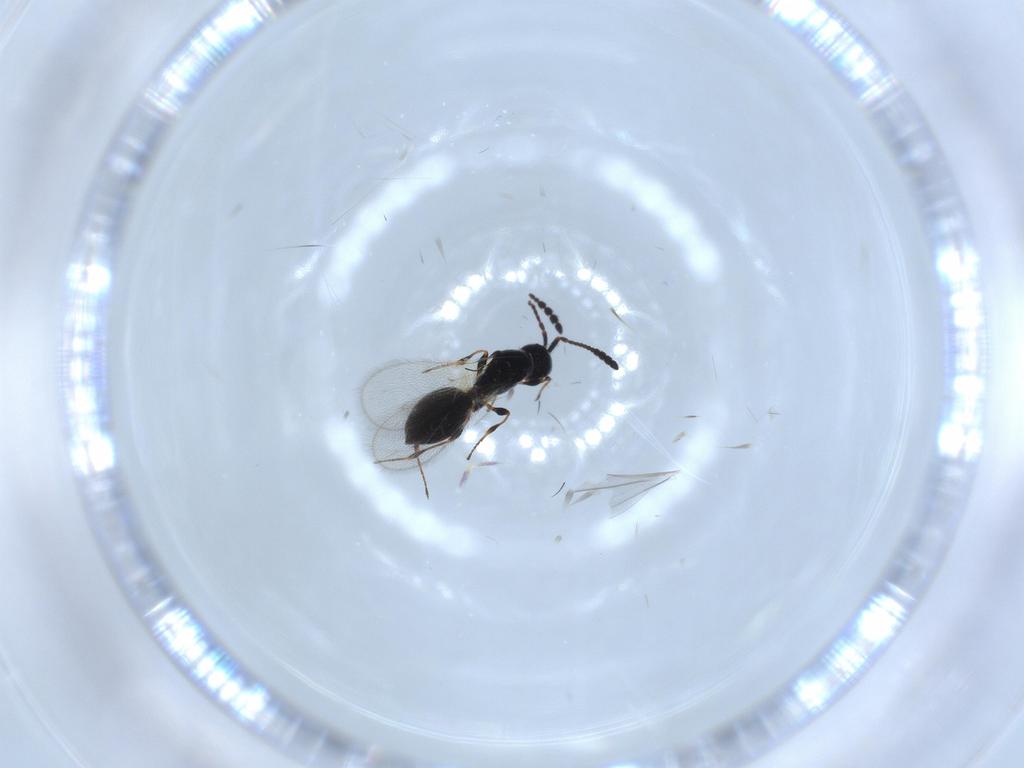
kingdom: Animalia
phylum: Arthropoda
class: Insecta
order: Hymenoptera
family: Diapriidae
